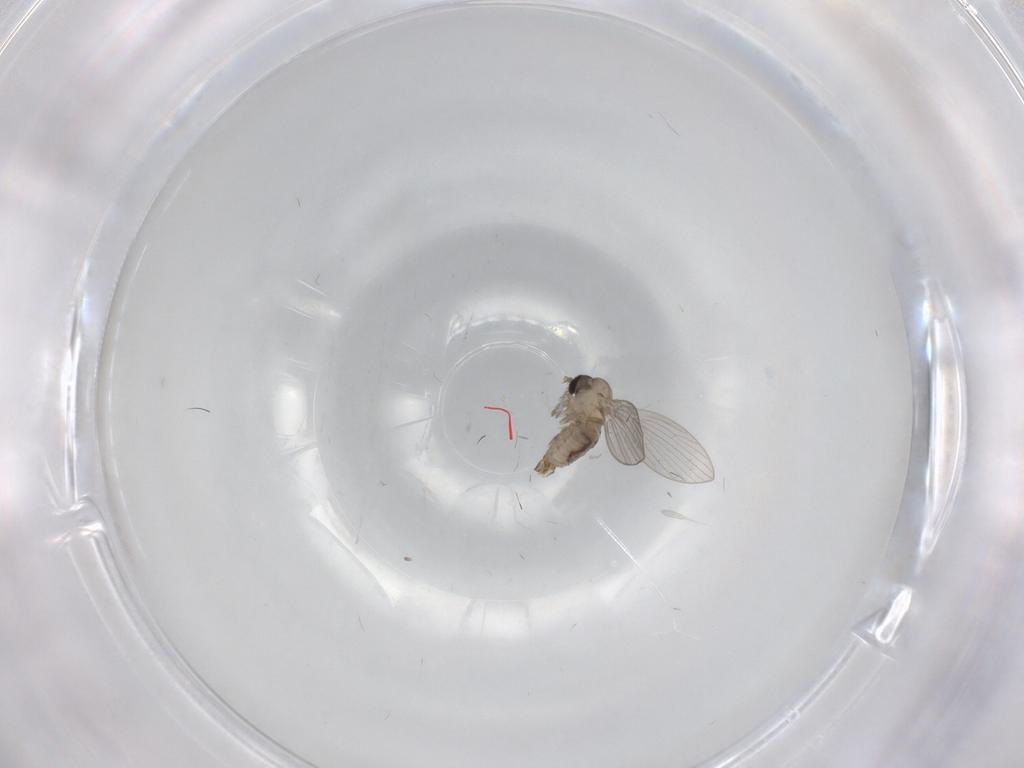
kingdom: Animalia
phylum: Arthropoda
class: Insecta
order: Diptera
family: Psychodidae
